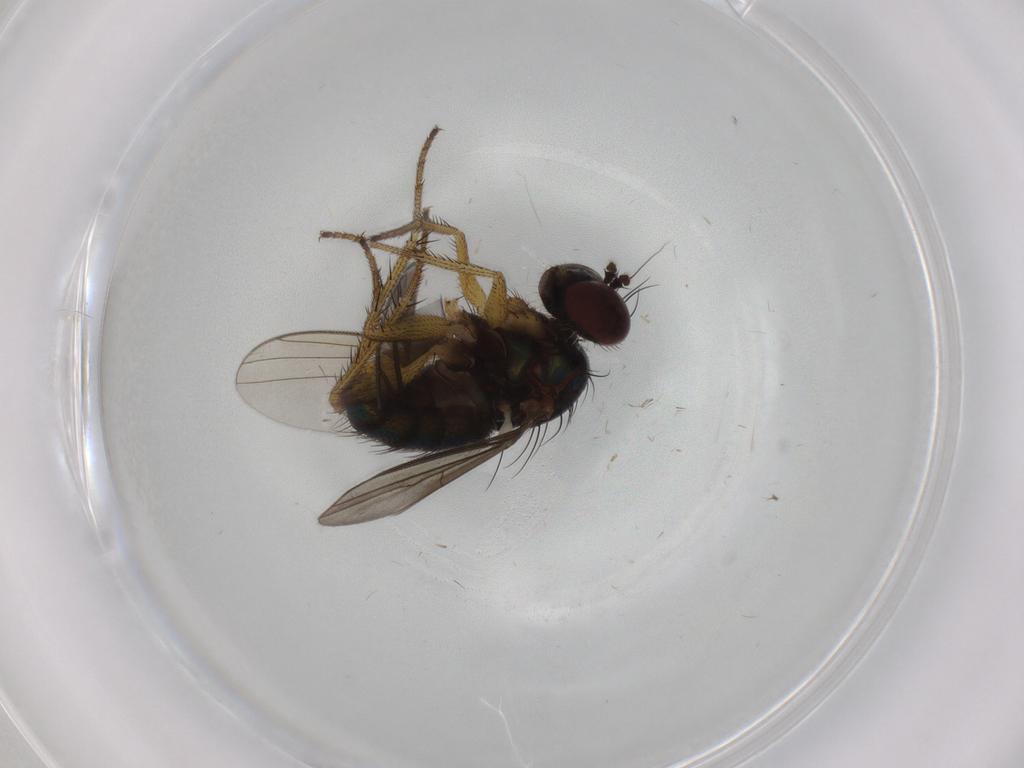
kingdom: Animalia
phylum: Arthropoda
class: Insecta
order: Diptera
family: Dolichopodidae
